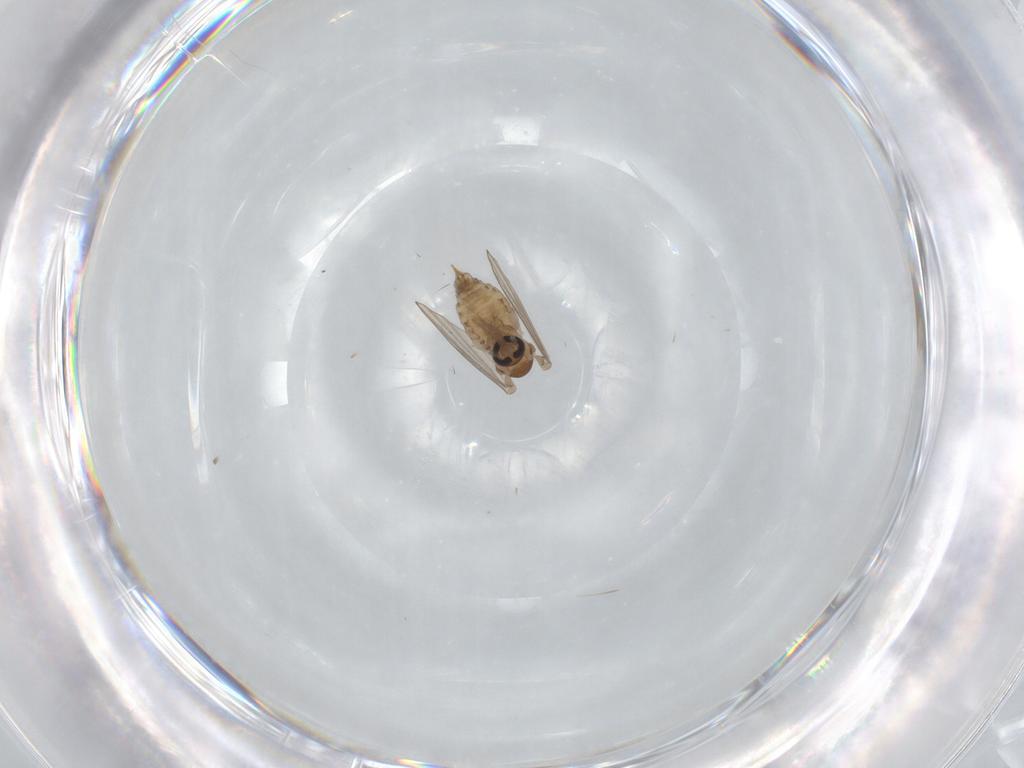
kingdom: Animalia
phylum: Arthropoda
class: Insecta
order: Diptera
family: Psychodidae
